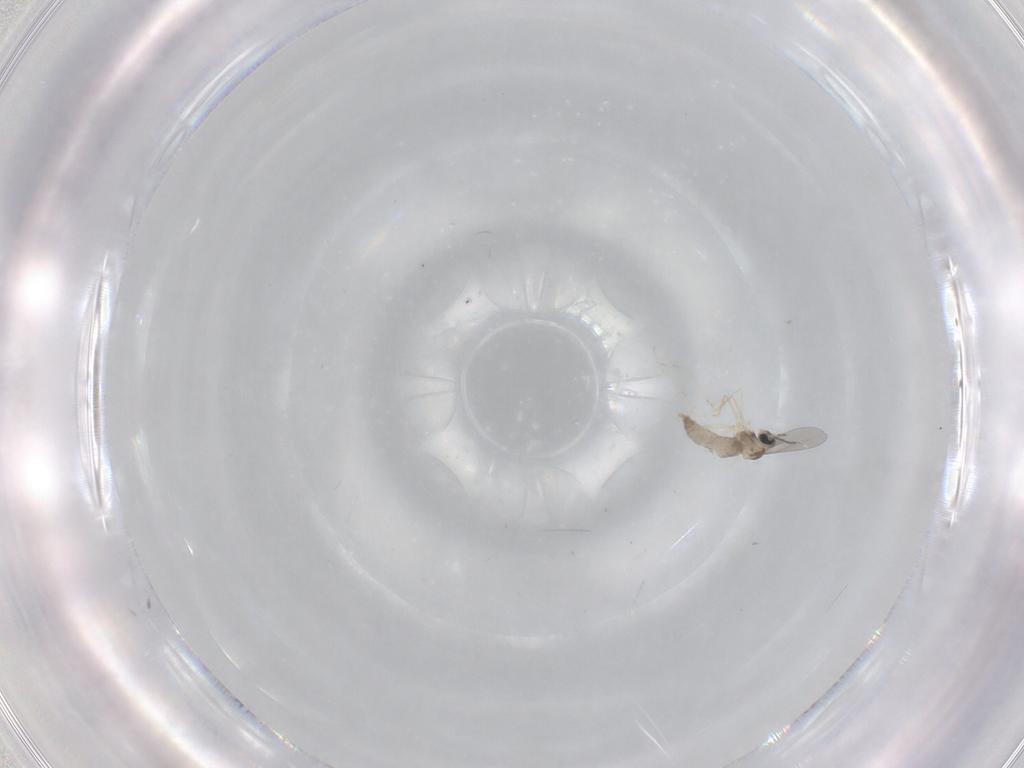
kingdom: Animalia
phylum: Arthropoda
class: Insecta
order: Diptera
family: Cecidomyiidae
